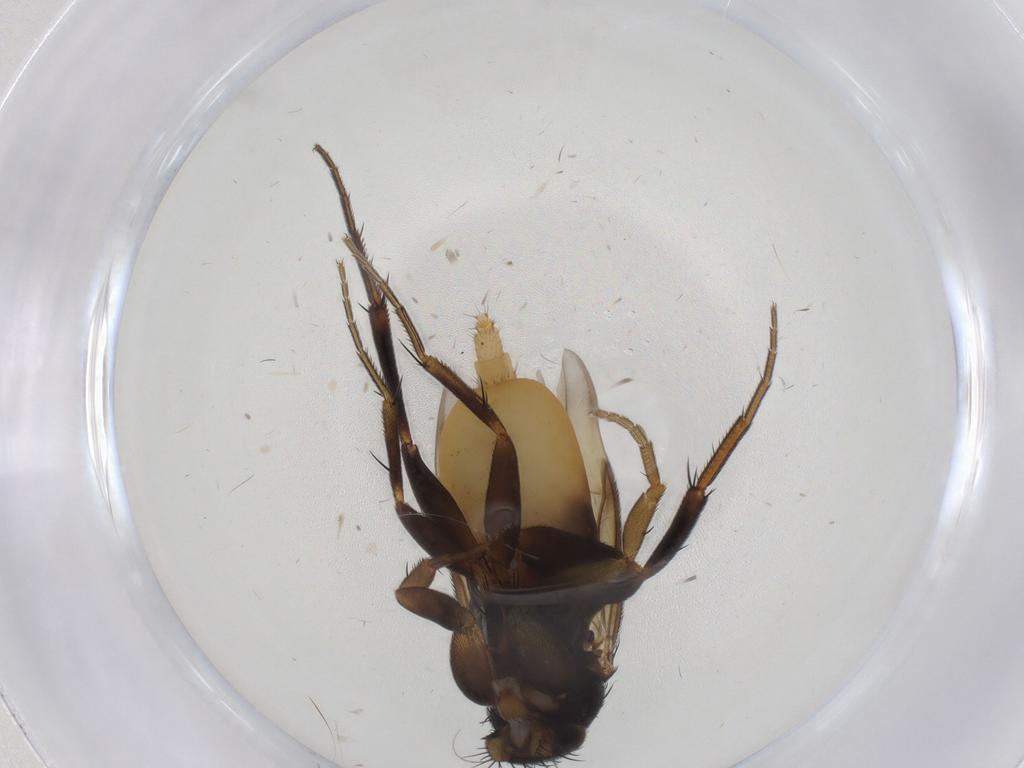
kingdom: Animalia
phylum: Arthropoda
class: Insecta
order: Diptera
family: Phoridae
